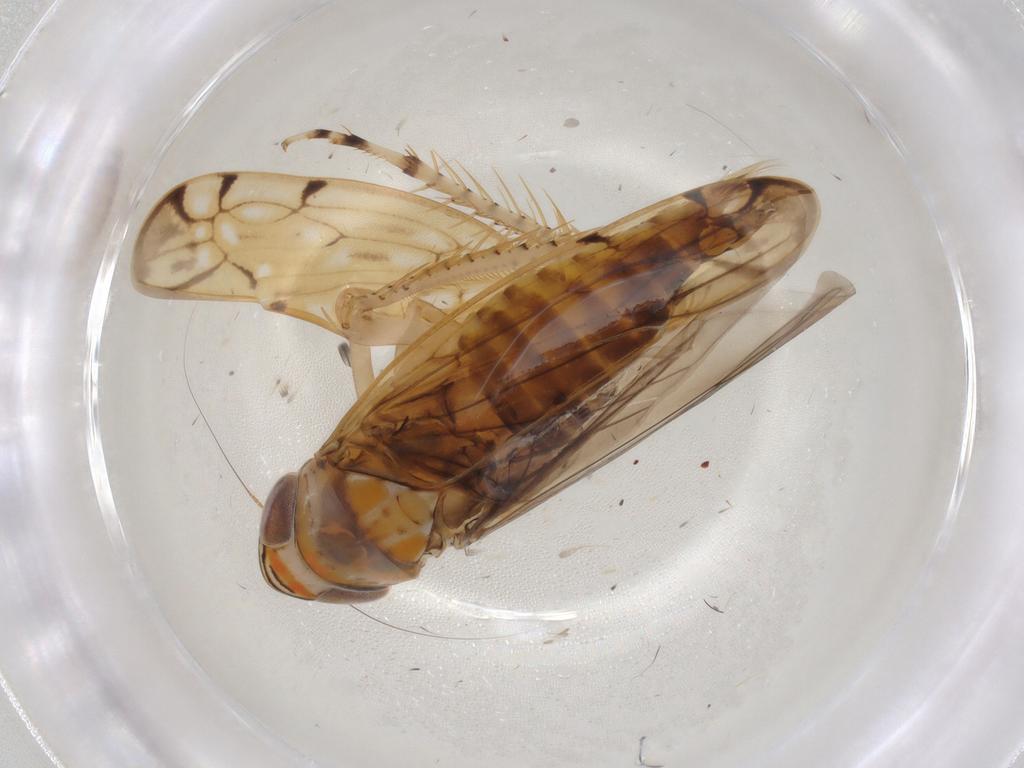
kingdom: Animalia
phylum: Arthropoda
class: Insecta
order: Hemiptera
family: Cicadellidae
